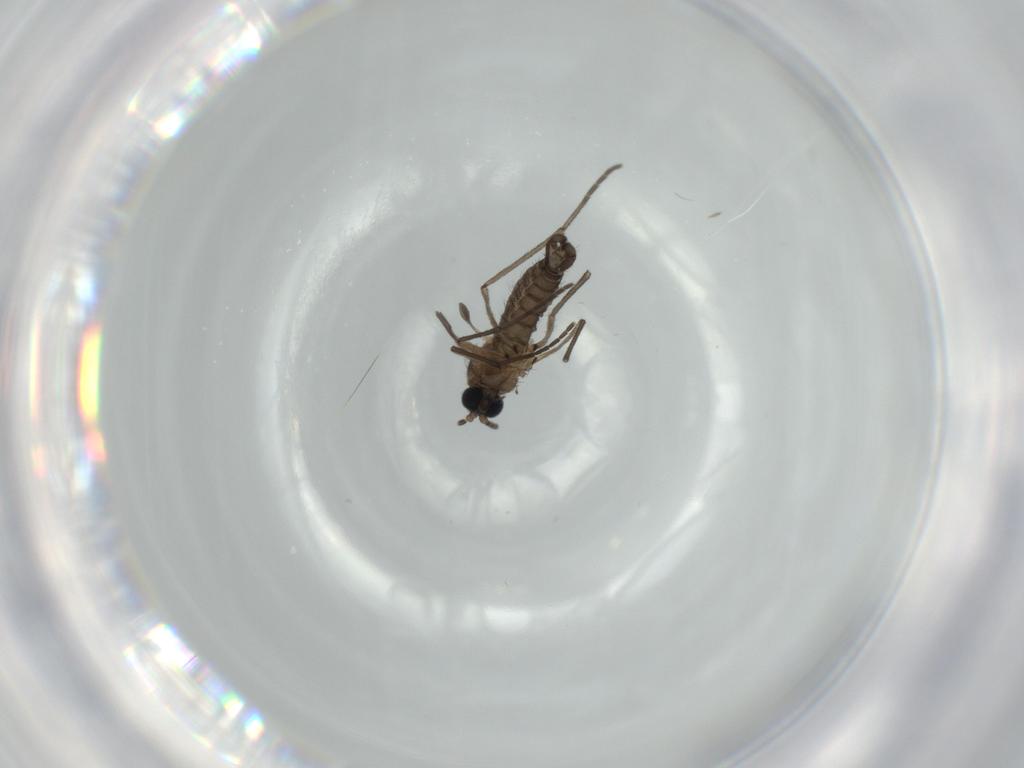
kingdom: Animalia
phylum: Arthropoda
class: Insecta
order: Diptera
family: Sciaridae
